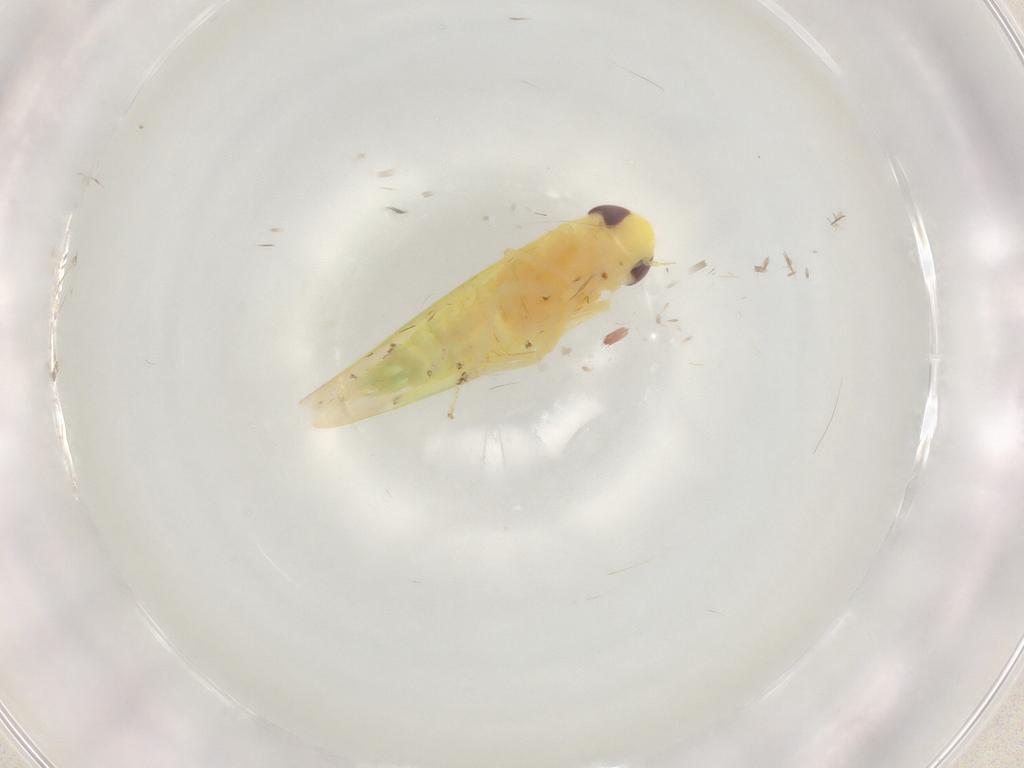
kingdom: Animalia
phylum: Arthropoda
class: Insecta
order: Hemiptera
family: Cicadellidae
